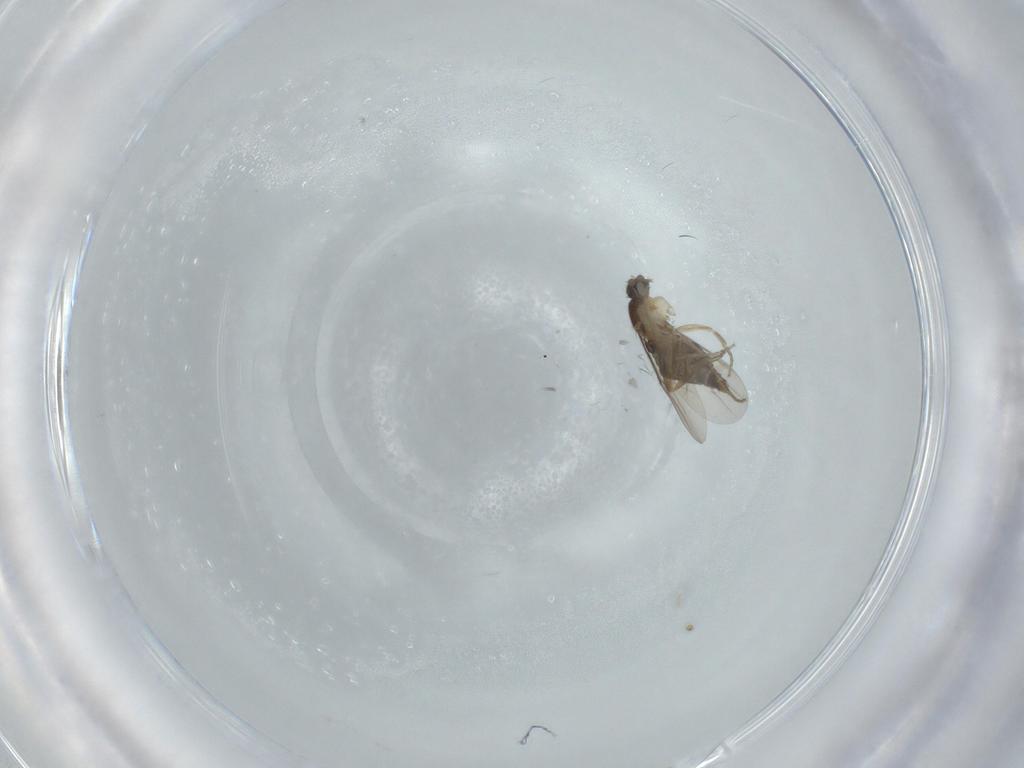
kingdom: Animalia
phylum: Arthropoda
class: Insecta
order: Diptera
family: Phoridae
